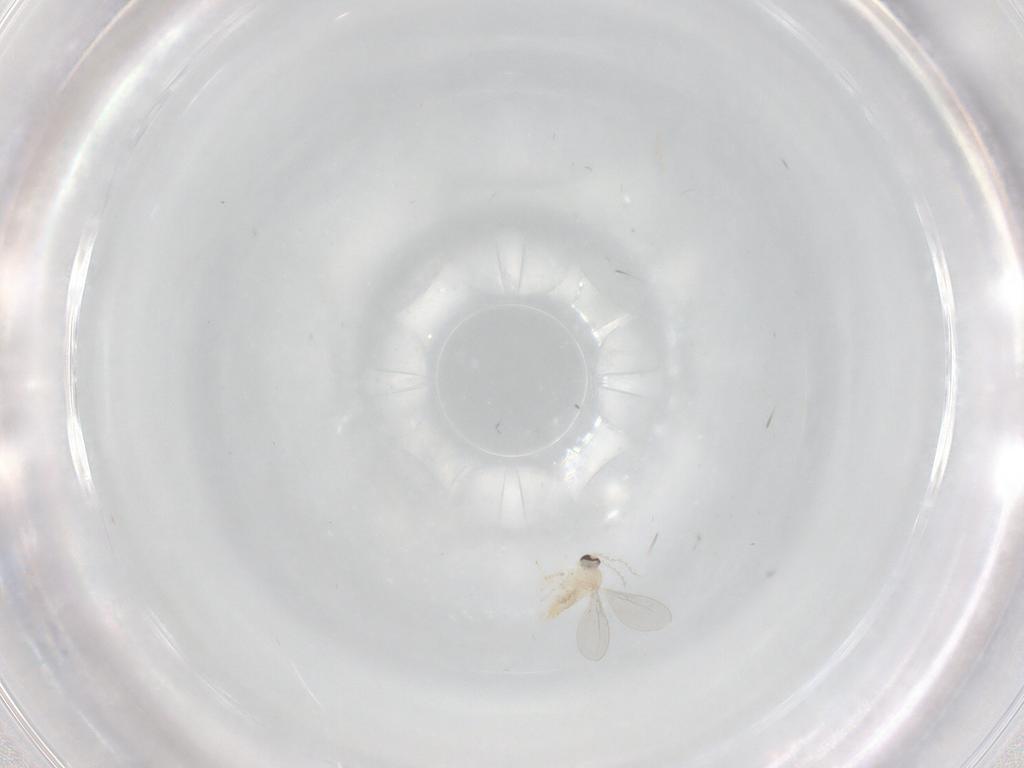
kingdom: Animalia
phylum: Arthropoda
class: Insecta
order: Diptera
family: Cecidomyiidae
